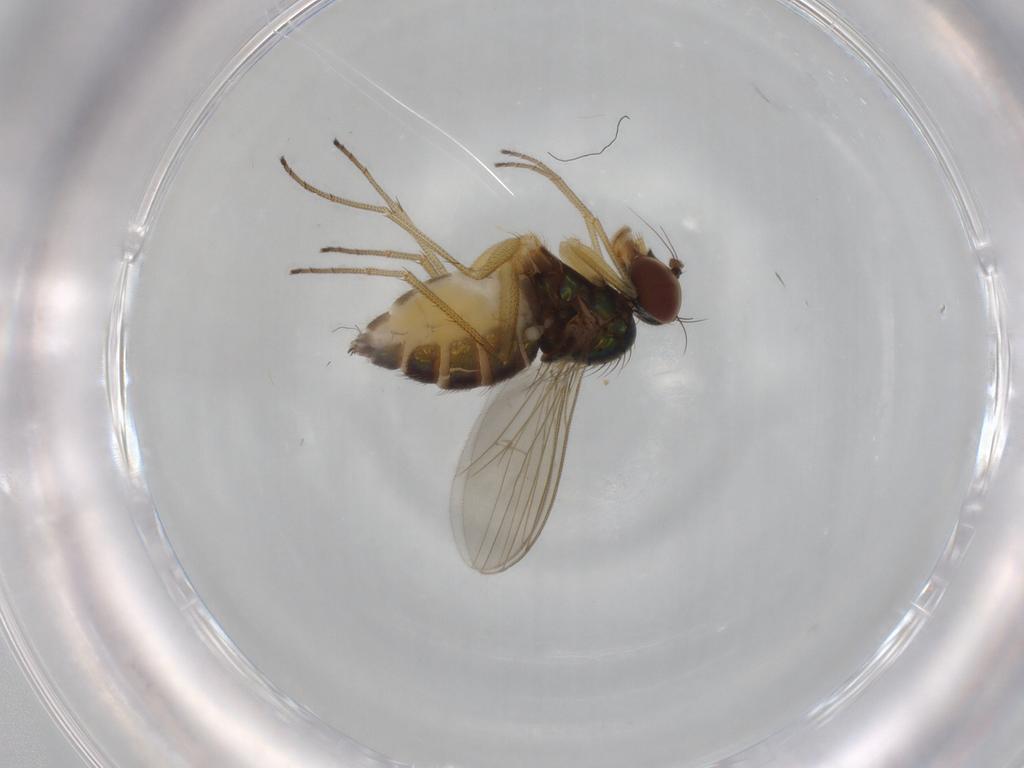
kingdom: Animalia
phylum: Arthropoda
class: Insecta
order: Diptera
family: Dolichopodidae
